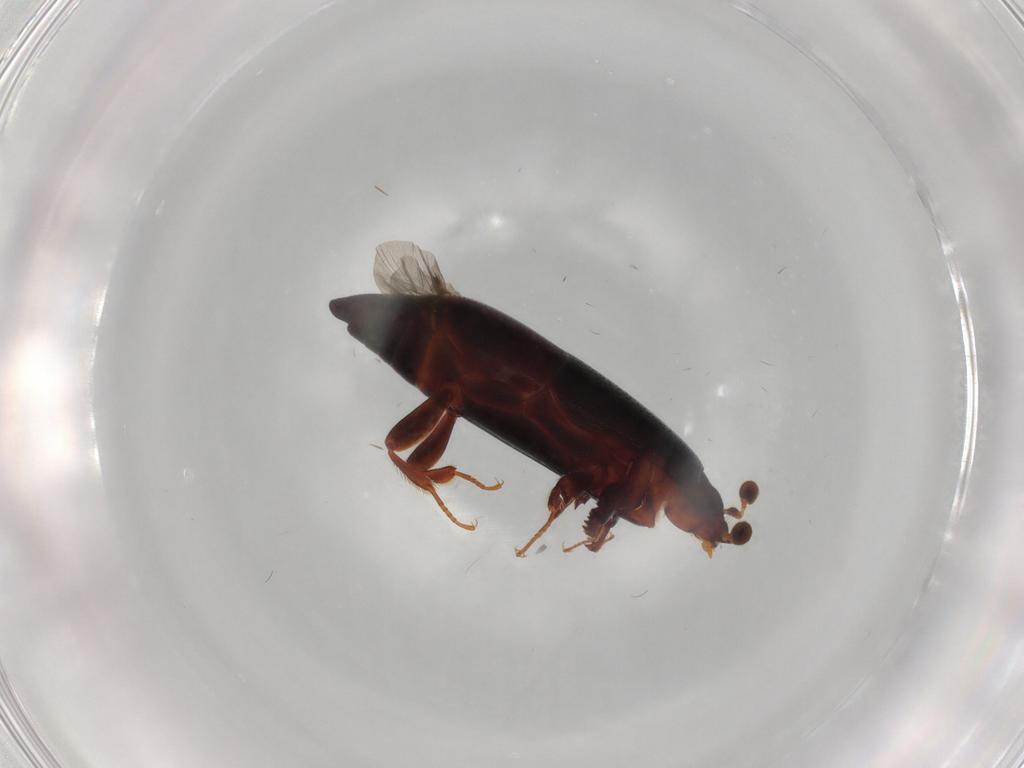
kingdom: Animalia
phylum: Arthropoda
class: Insecta
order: Coleoptera
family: Histeridae
